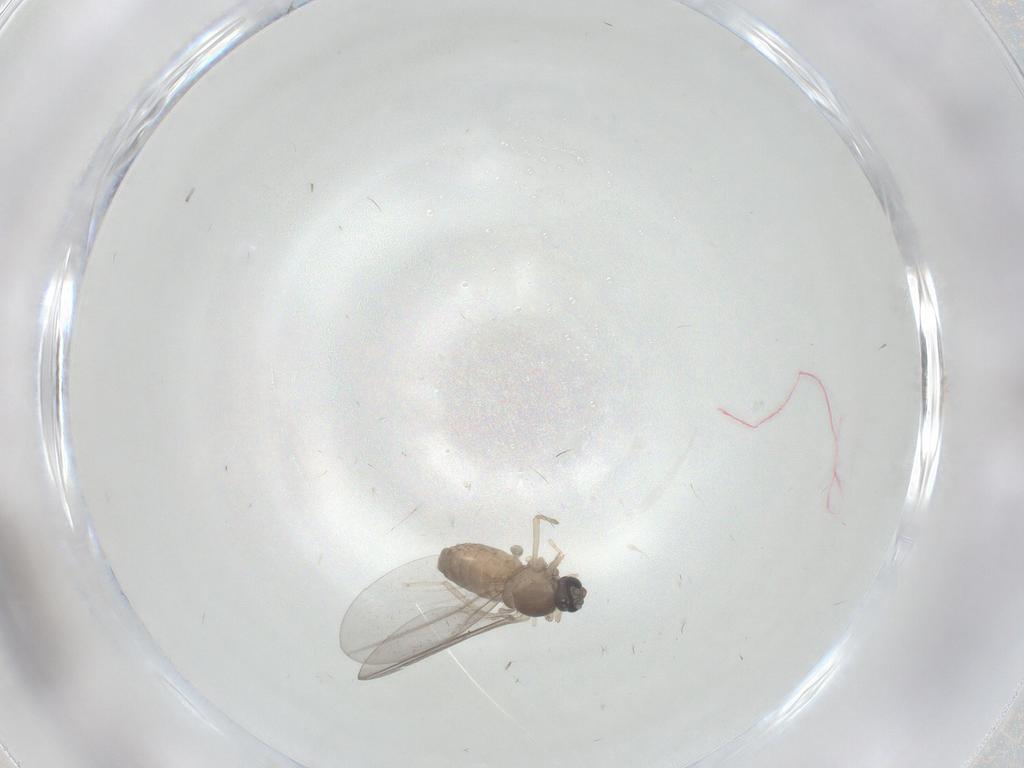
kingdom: Animalia
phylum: Arthropoda
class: Insecta
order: Diptera
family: Cecidomyiidae
